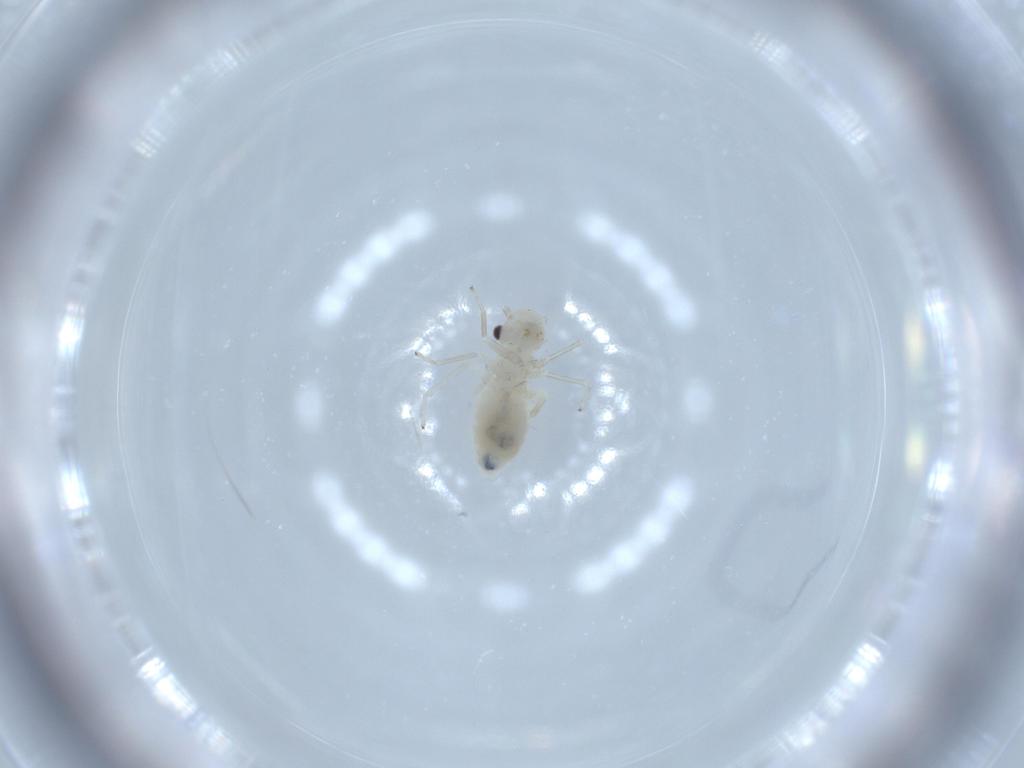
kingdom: Animalia
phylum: Arthropoda
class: Insecta
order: Psocodea
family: Caeciliusidae
